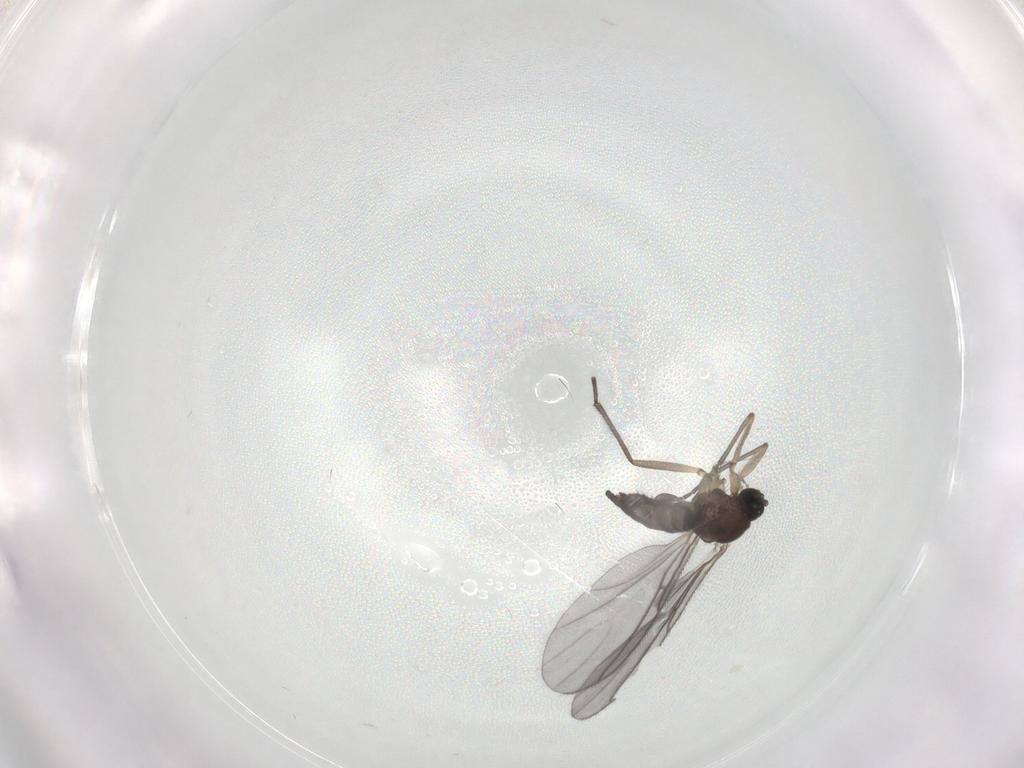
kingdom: Animalia
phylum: Arthropoda
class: Insecta
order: Diptera
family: Sciaridae
